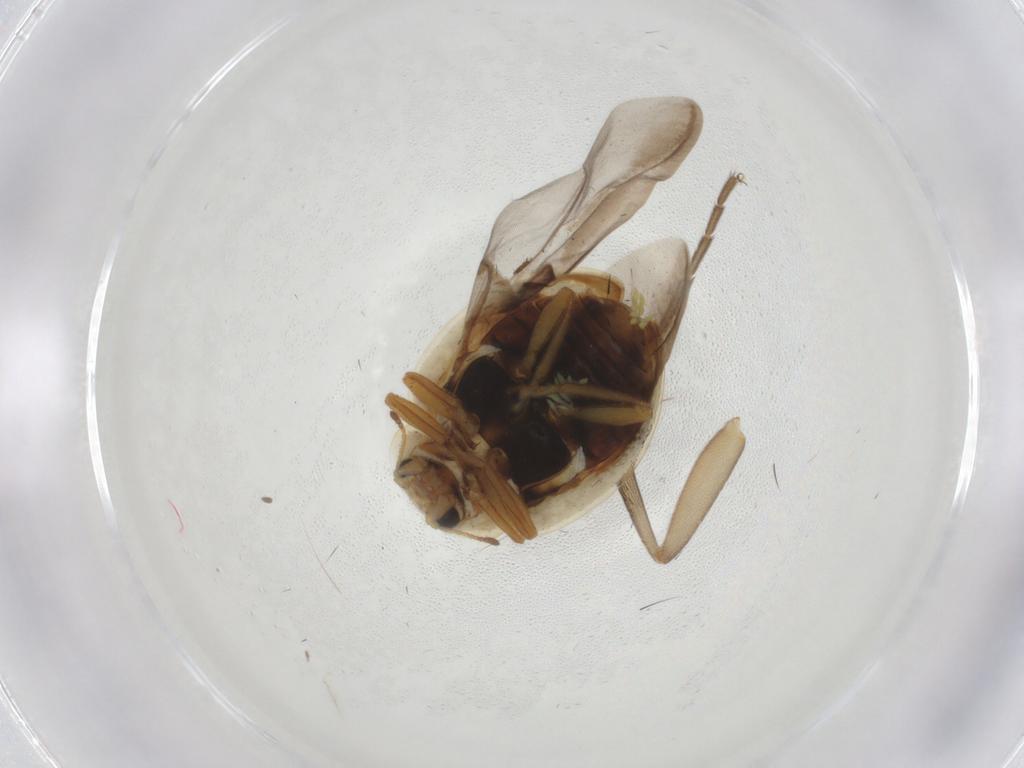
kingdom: Animalia
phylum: Arthropoda
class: Insecta
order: Coleoptera
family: Coccinellidae
